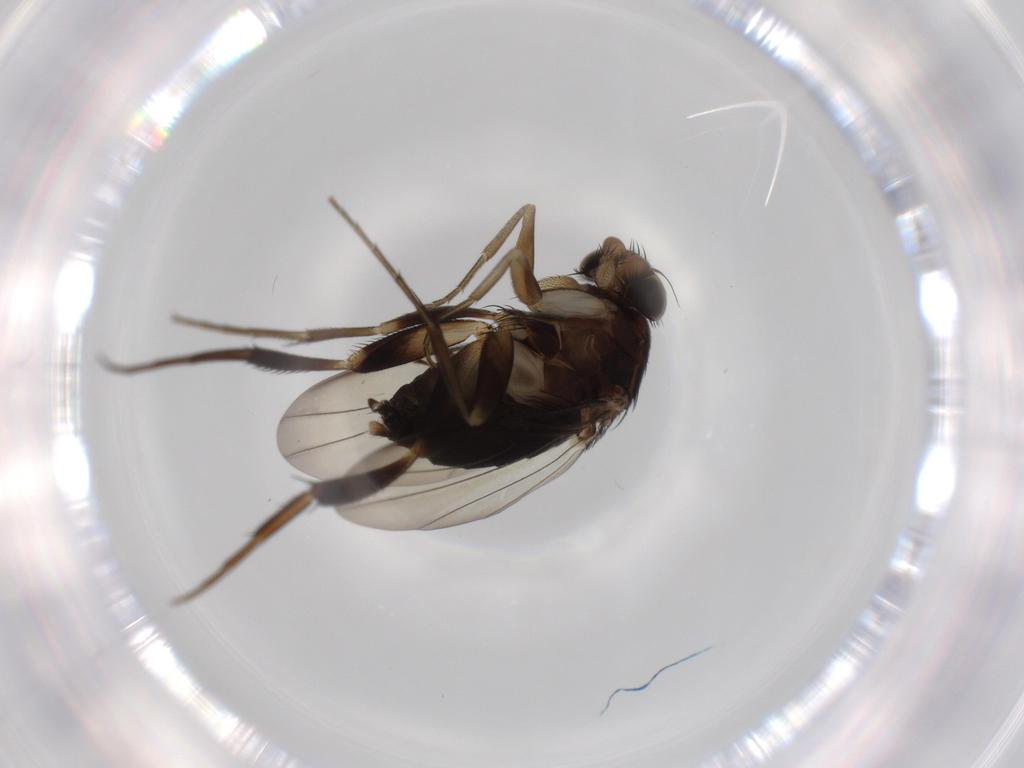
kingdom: Animalia
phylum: Arthropoda
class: Insecta
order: Diptera
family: Phoridae
